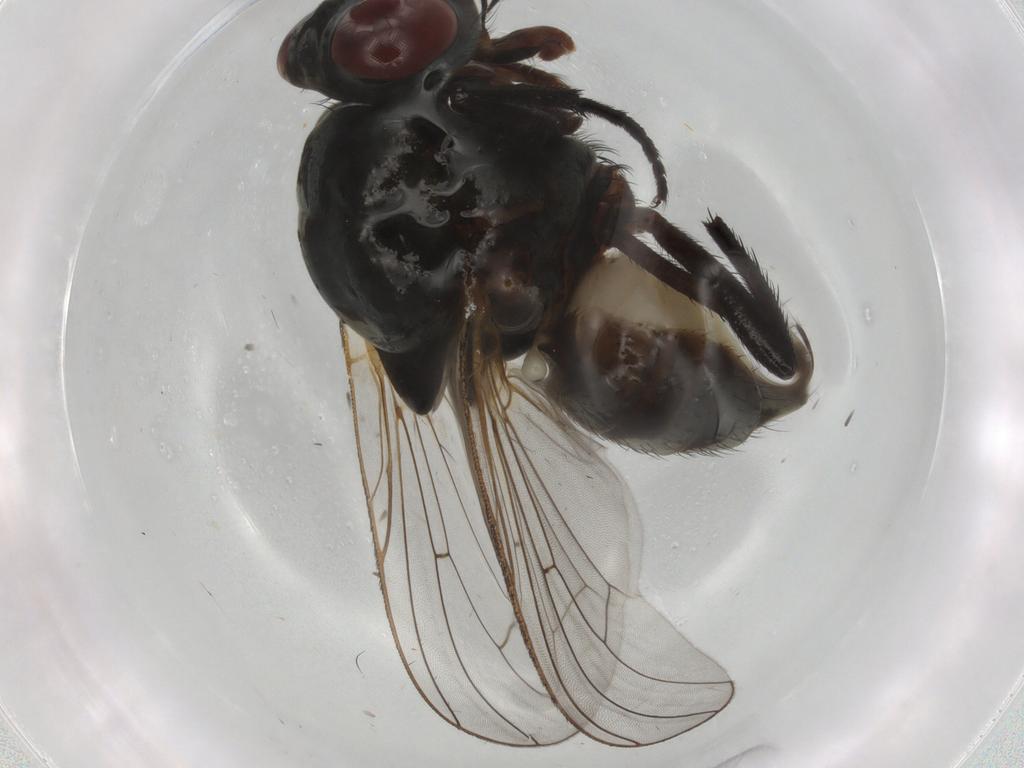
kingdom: Animalia
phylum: Arthropoda
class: Insecta
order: Diptera
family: Anthomyiidae
